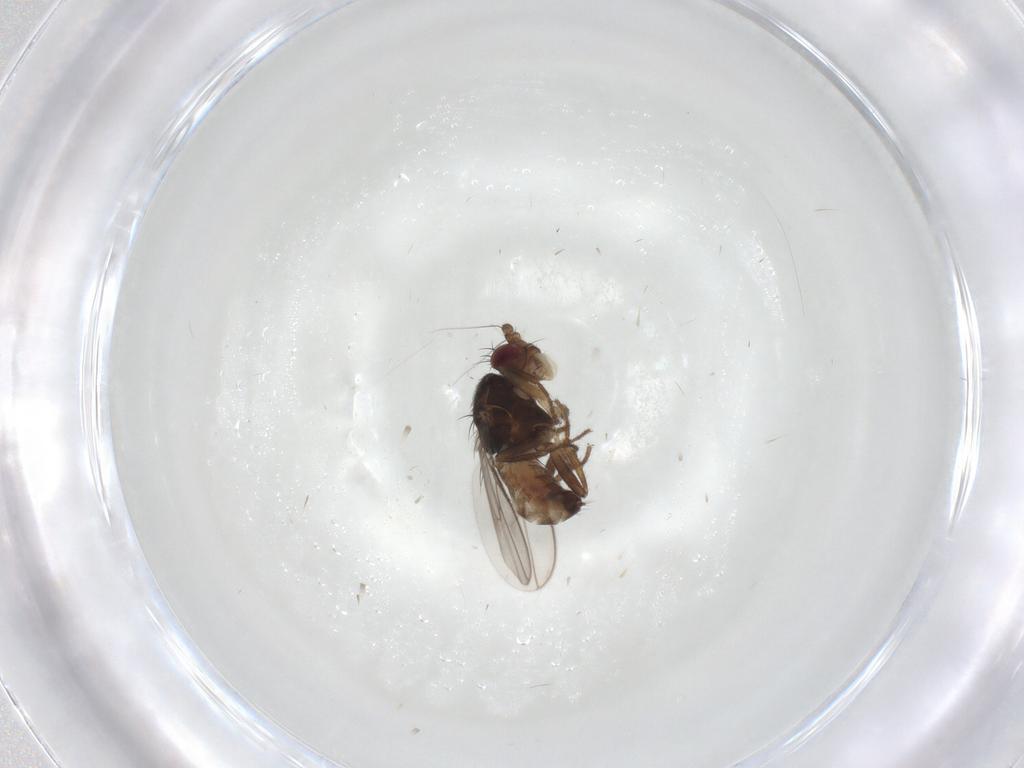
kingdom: Animalia
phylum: Arthropoda
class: Insecta
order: Diptera
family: Sphaeroceridae
